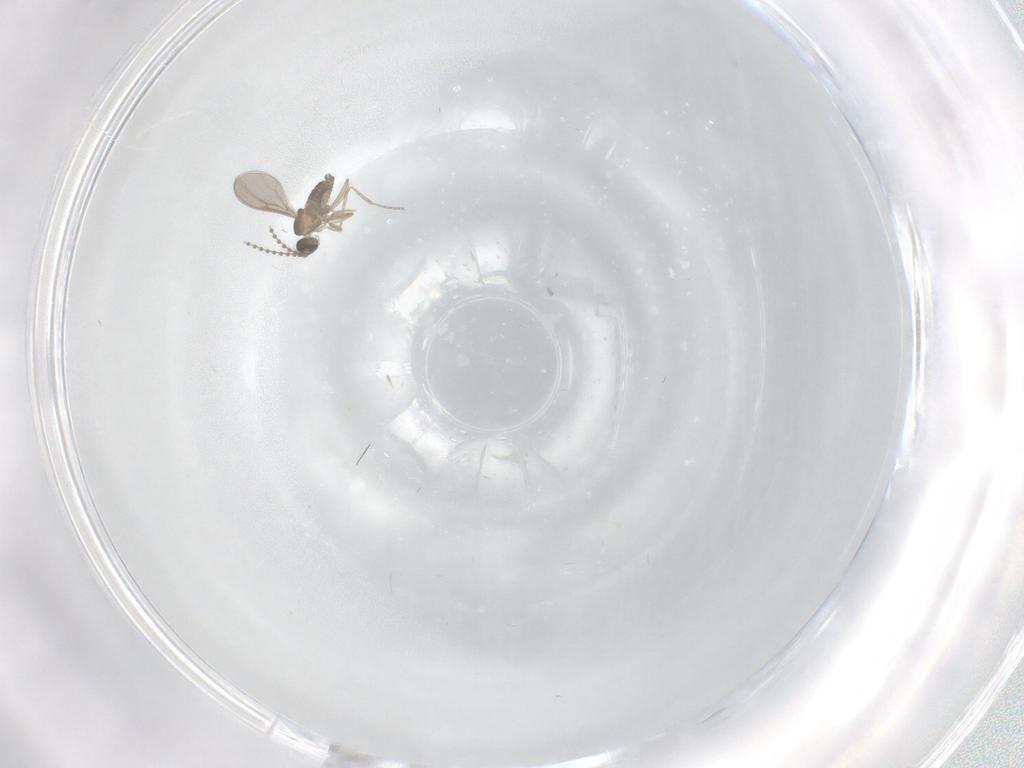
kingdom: Animalia
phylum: Arthropoda
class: Insecta
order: Diptera
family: Cecidomyiidae
